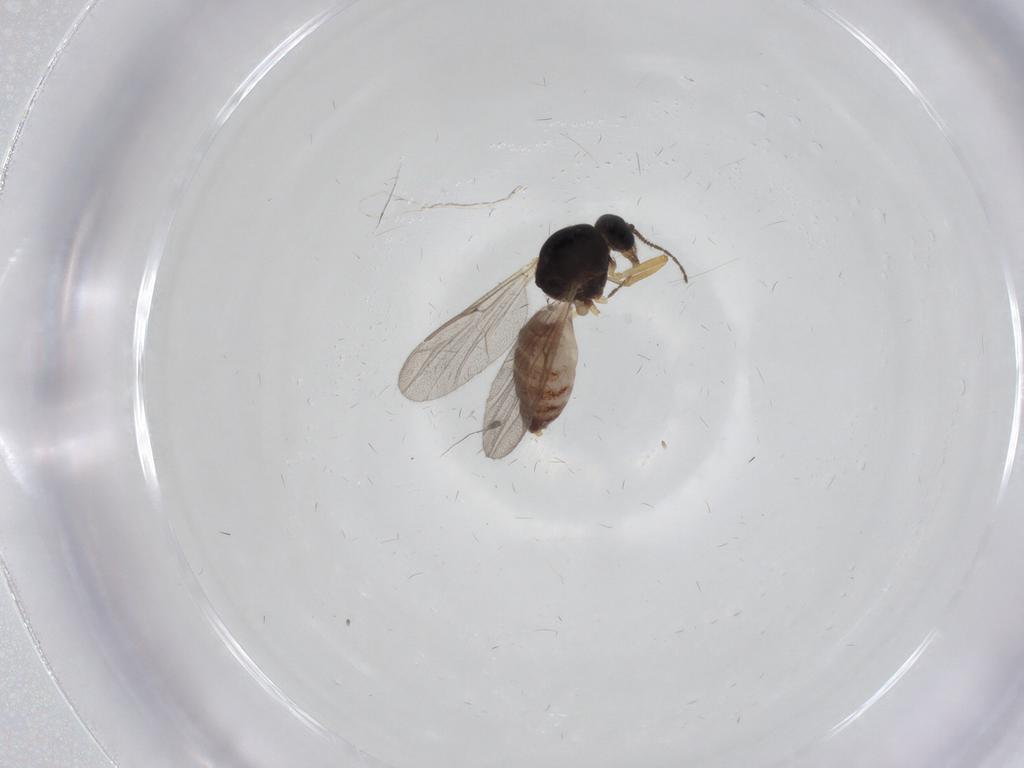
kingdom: Animalia
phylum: Arthropoda
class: Insecta
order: Diptera
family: Ceratopogonidae
